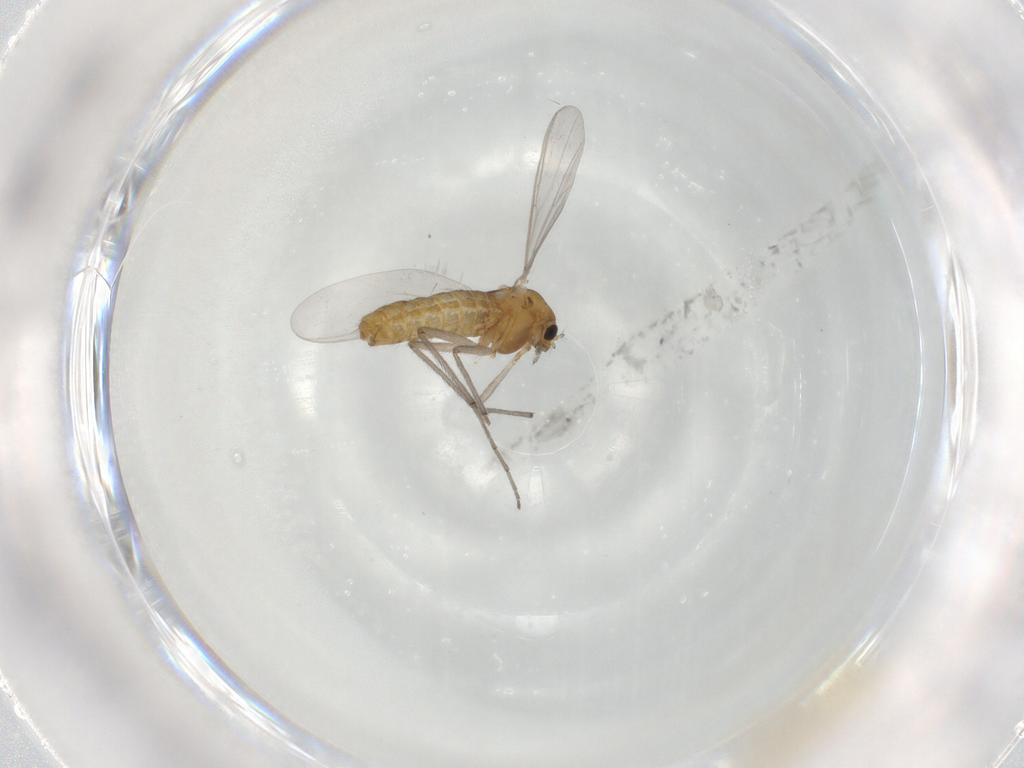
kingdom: Animalia
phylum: Arthropoda
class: Insecta
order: Diptera
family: Chironomidae
